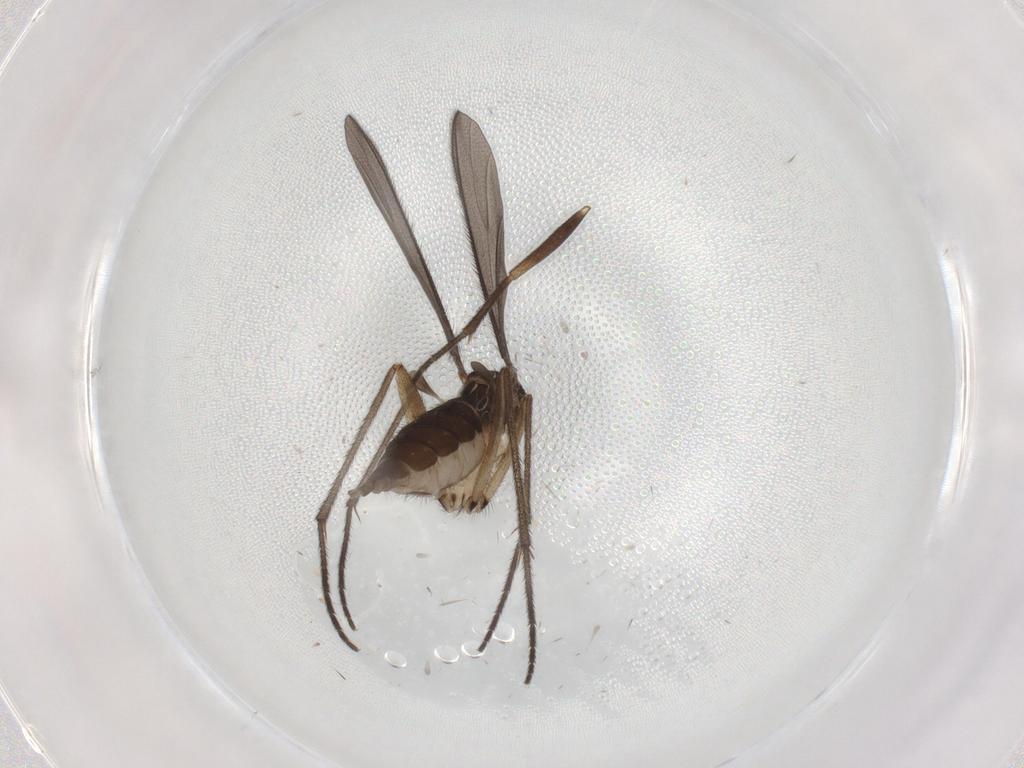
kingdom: Animalia
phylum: Arthropoda
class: Insecta
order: Diptera
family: Sciaridae
